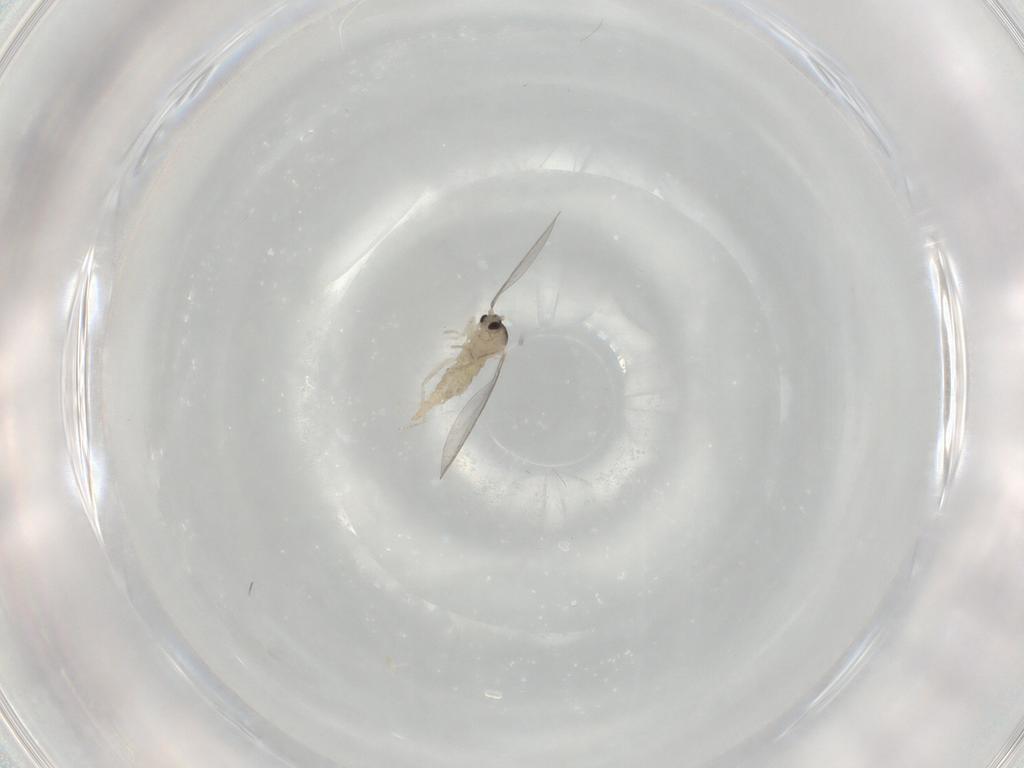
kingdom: Animalia
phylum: Arthropoda
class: Insecta
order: Diptera
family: Cecidomyiidae
